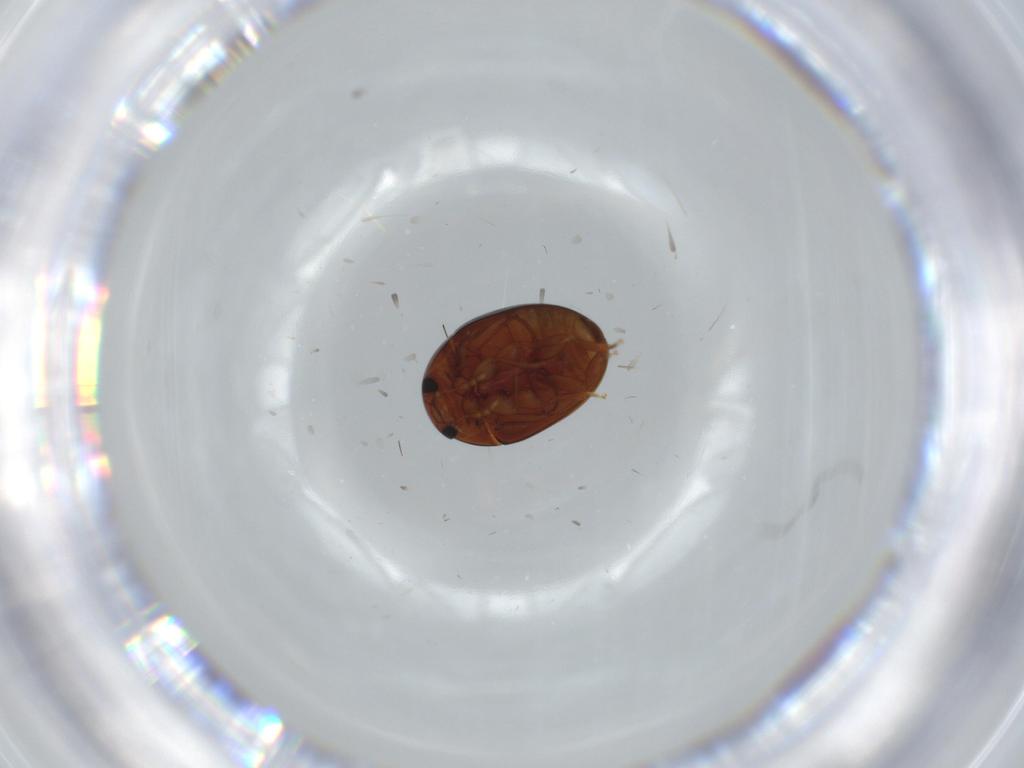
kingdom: Animalia
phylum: Arthropoda
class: Insecta
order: Coleoptera
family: Phalacridae
